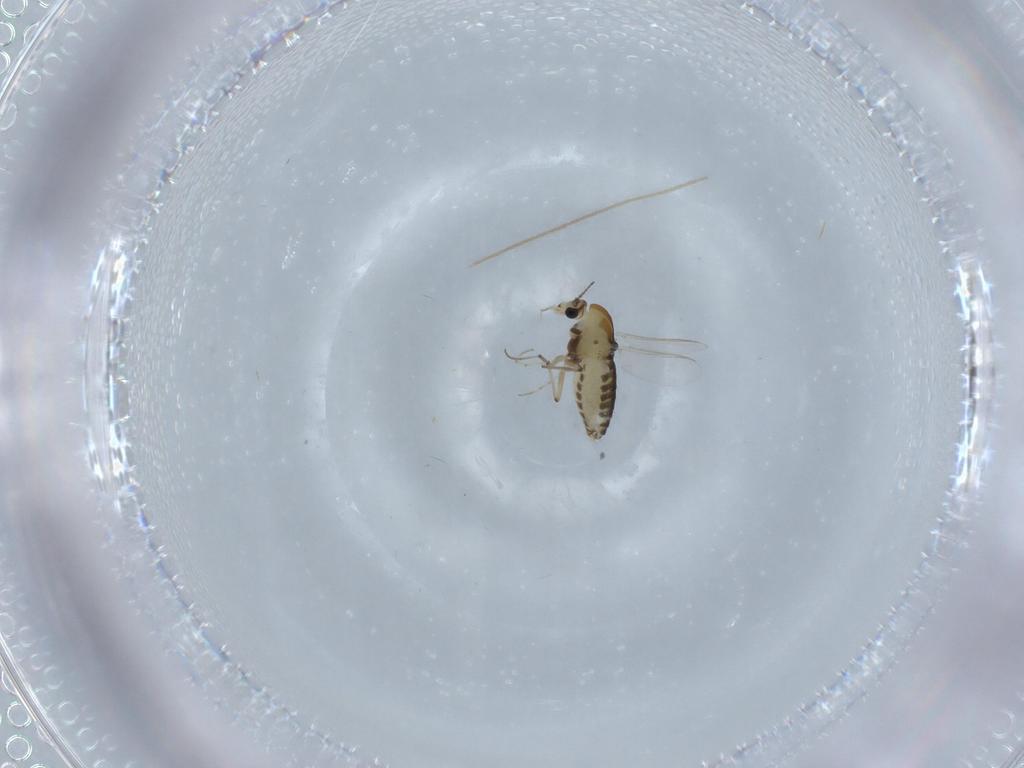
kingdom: Animalia
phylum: Arthropoda
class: Insecta
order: Diptera
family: Chironomidae
